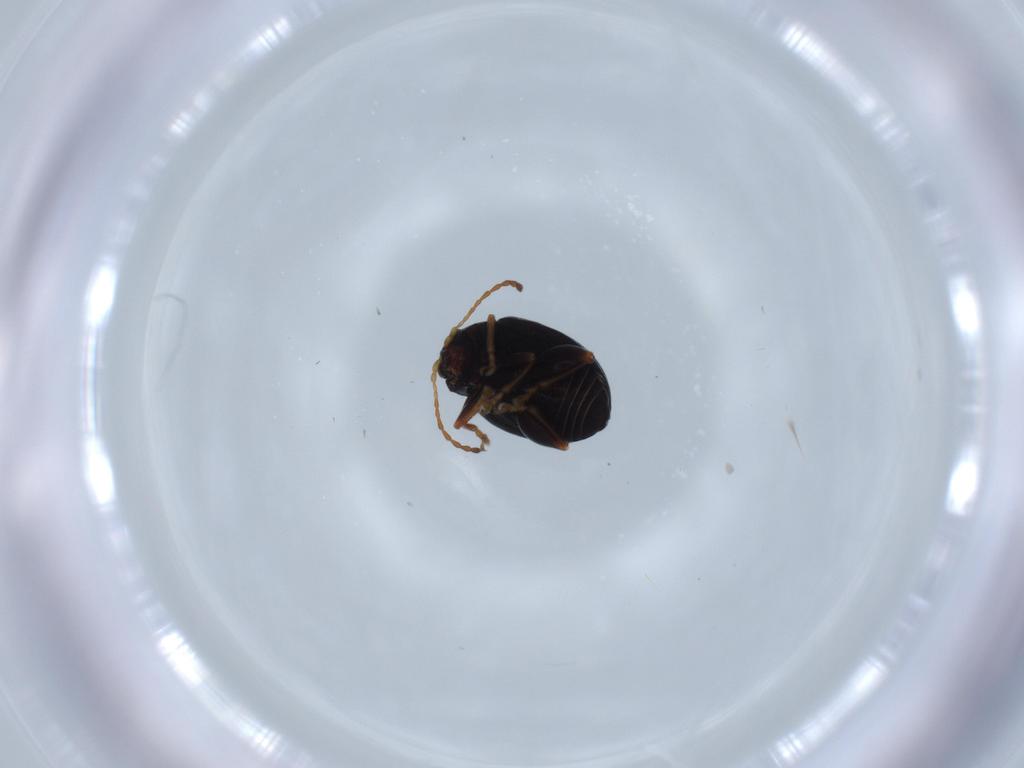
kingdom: Animalia
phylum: Arthropoda
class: Insecta
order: Coleoptera
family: Chrysomelidae
